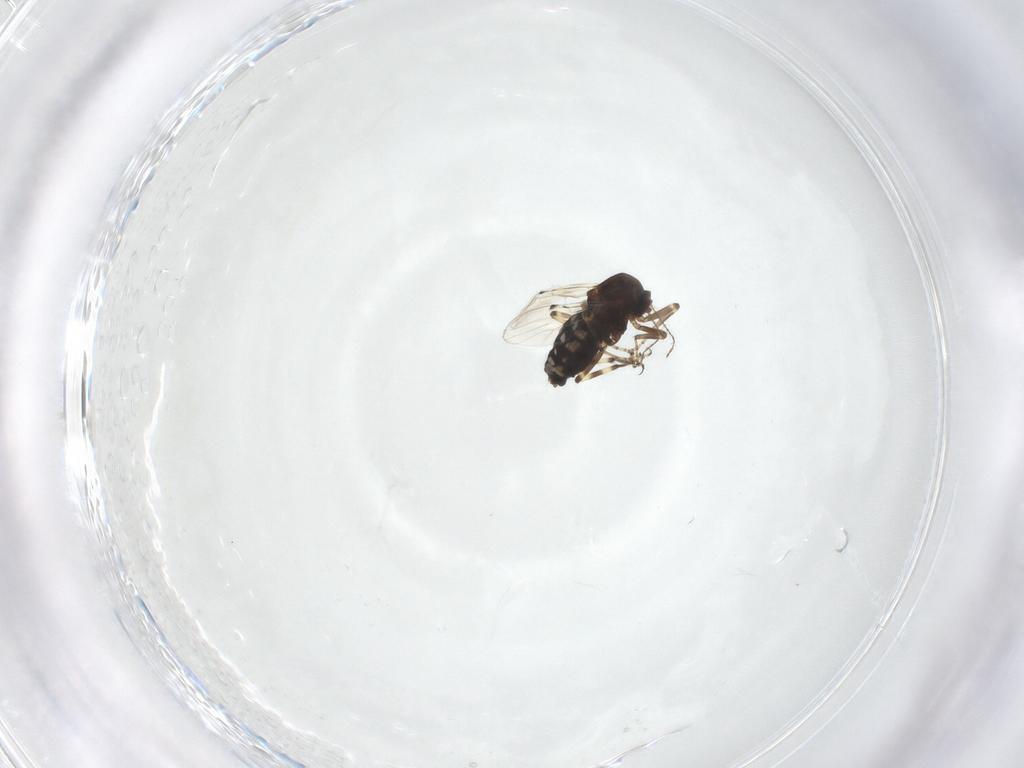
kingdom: Animalia
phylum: Arthropoda
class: Insecta
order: Diptera
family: Ceratopogonidae
